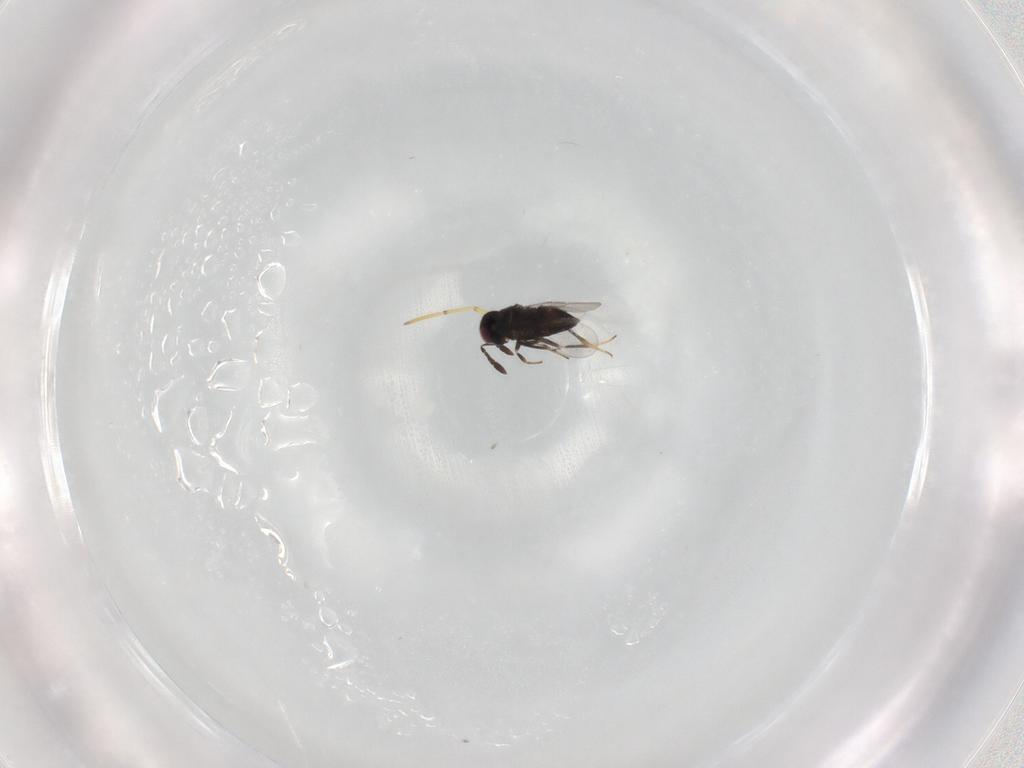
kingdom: Animalia
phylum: Arthropoda
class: Insecta
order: Hymenoptera
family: Encyrtidae
